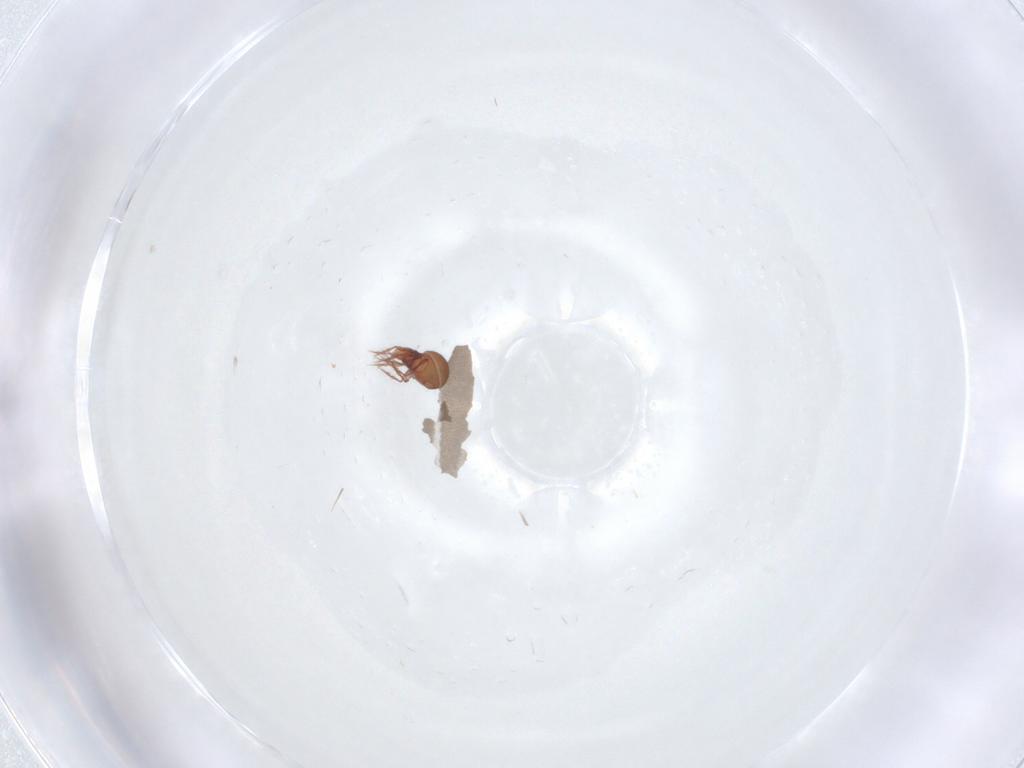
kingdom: Animalia
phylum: Arthropoda
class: Arachnida
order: Sarcoptiformes
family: Oppiidae
